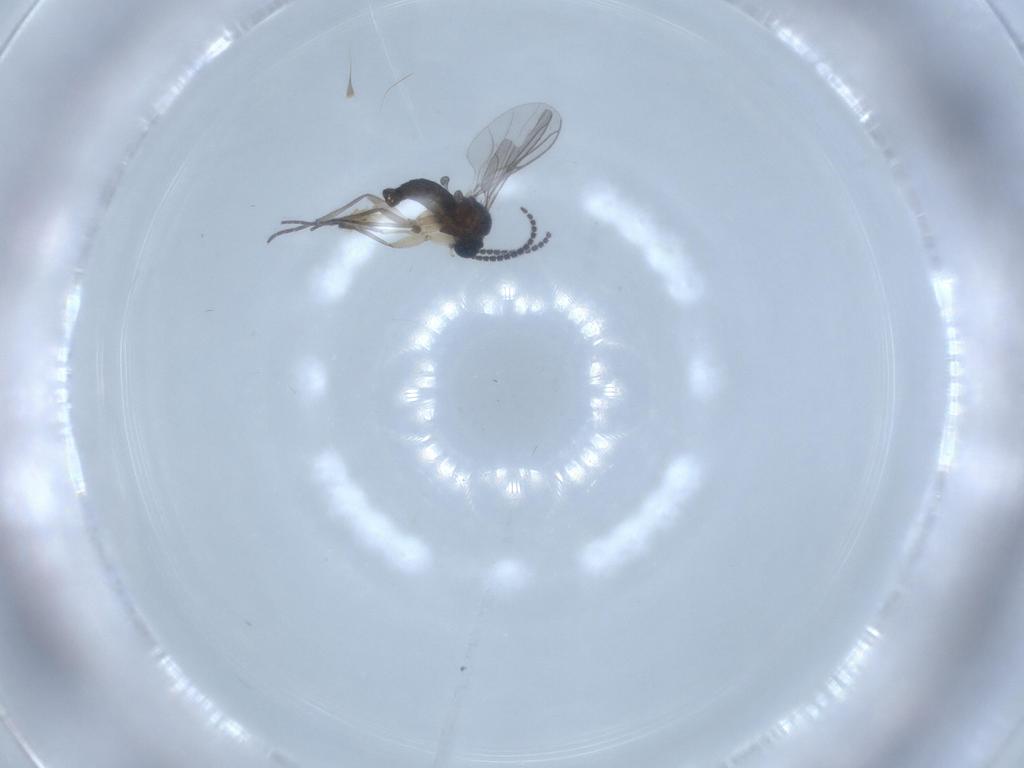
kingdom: Animalia
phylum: Arthropoda
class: Insecta
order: Diptera
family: Sciaridae
